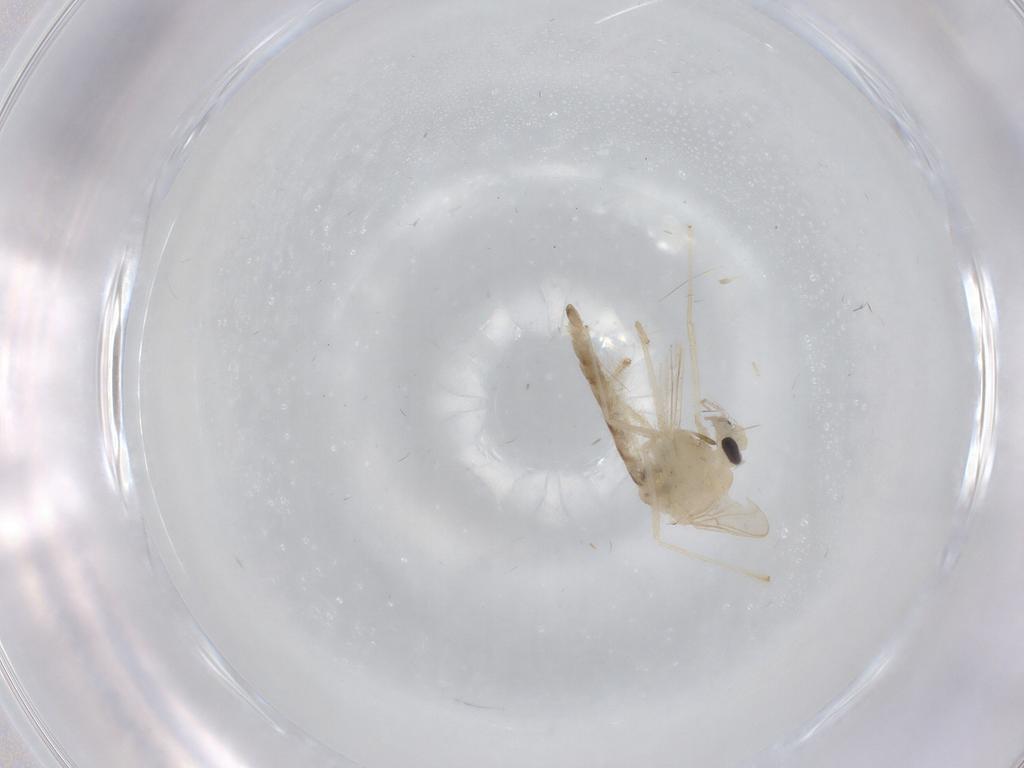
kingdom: Animalia
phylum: Arthropoda
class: Insecta
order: Diptera
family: Chironomidae
